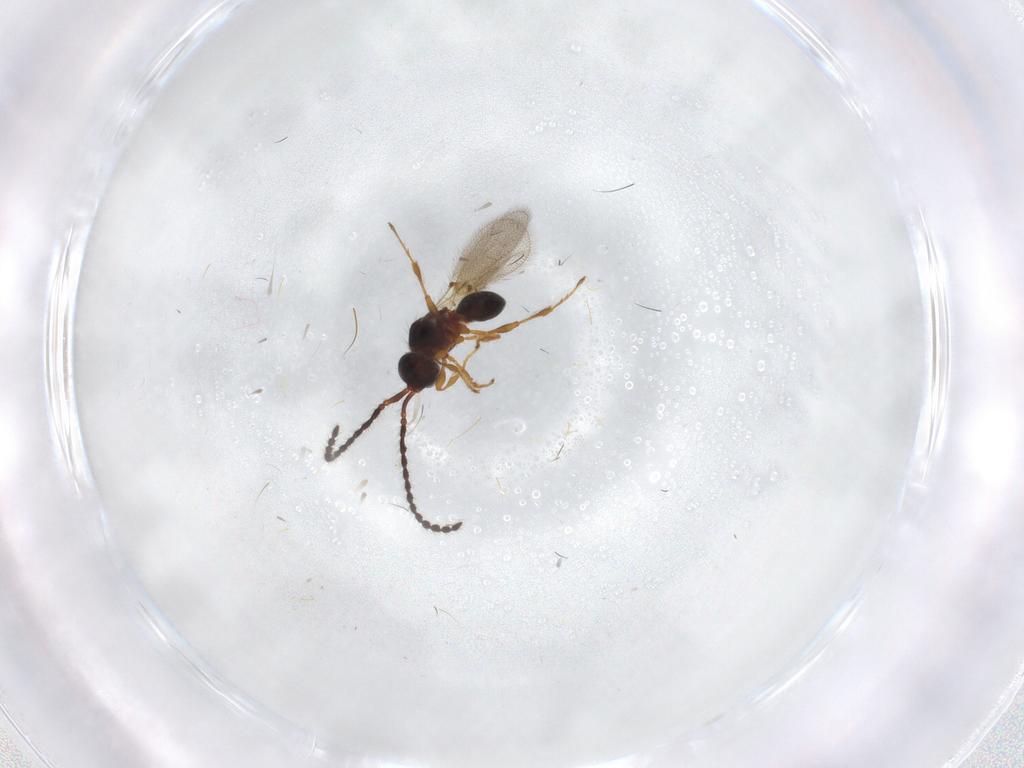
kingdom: Animalia
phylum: Arthropoda
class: Insecta
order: Hymenoptera
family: Diapriidae
